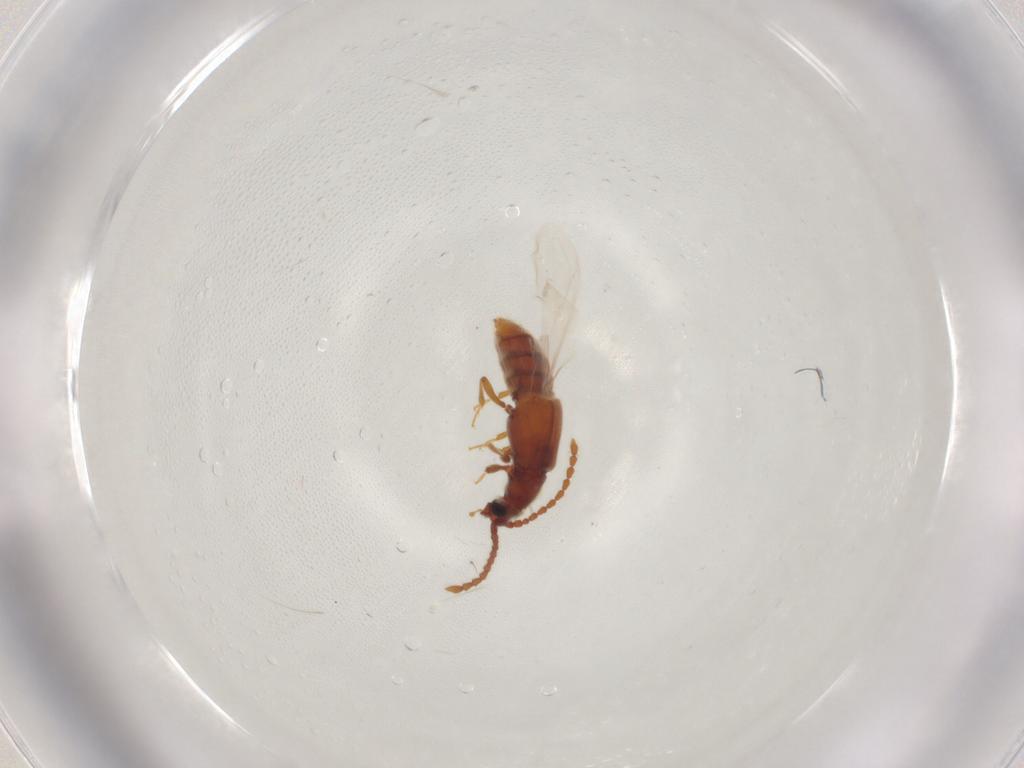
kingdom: Animalia
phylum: Arthropoda
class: Insecta
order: Coleoptera
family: Staphylinidae
